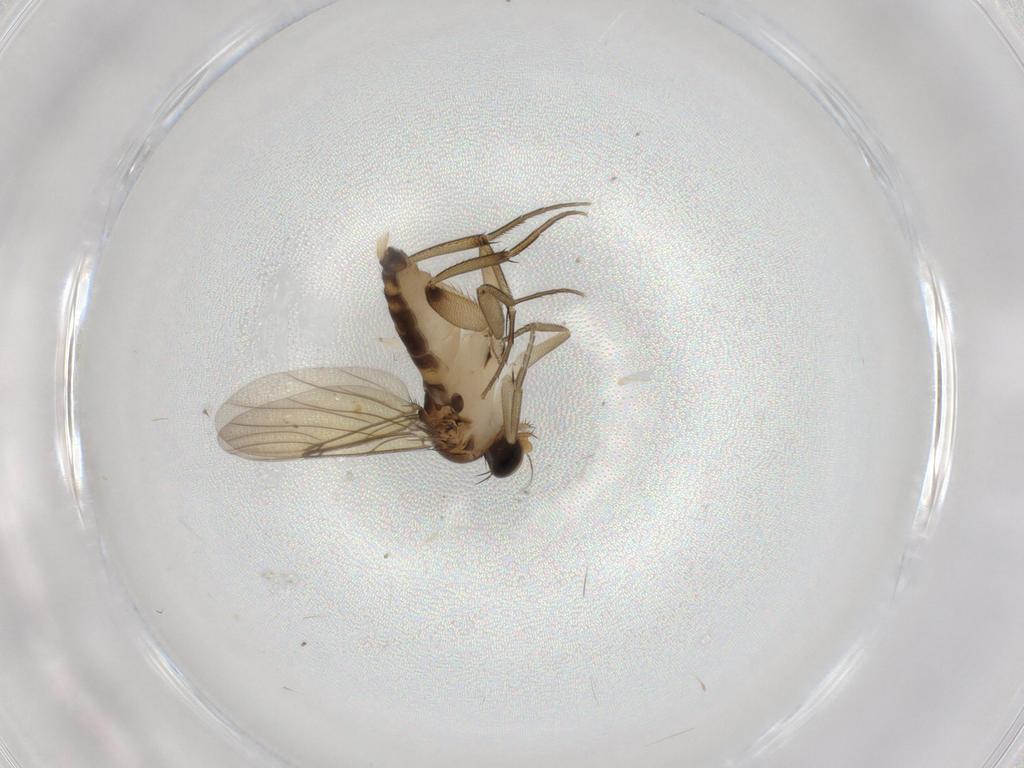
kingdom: Animalia
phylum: Arthropoda
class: Insecta
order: Diptera
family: Phoridae
